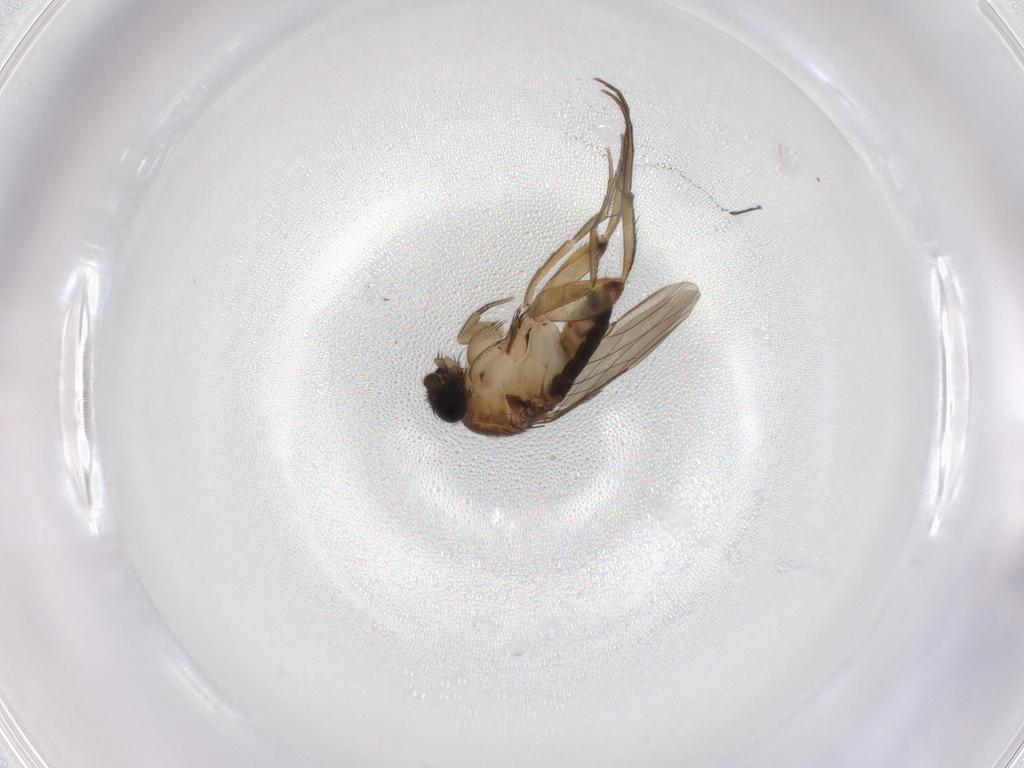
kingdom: Animalia
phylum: Arthropoda
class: Insecta
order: Diptera
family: Phoridae
